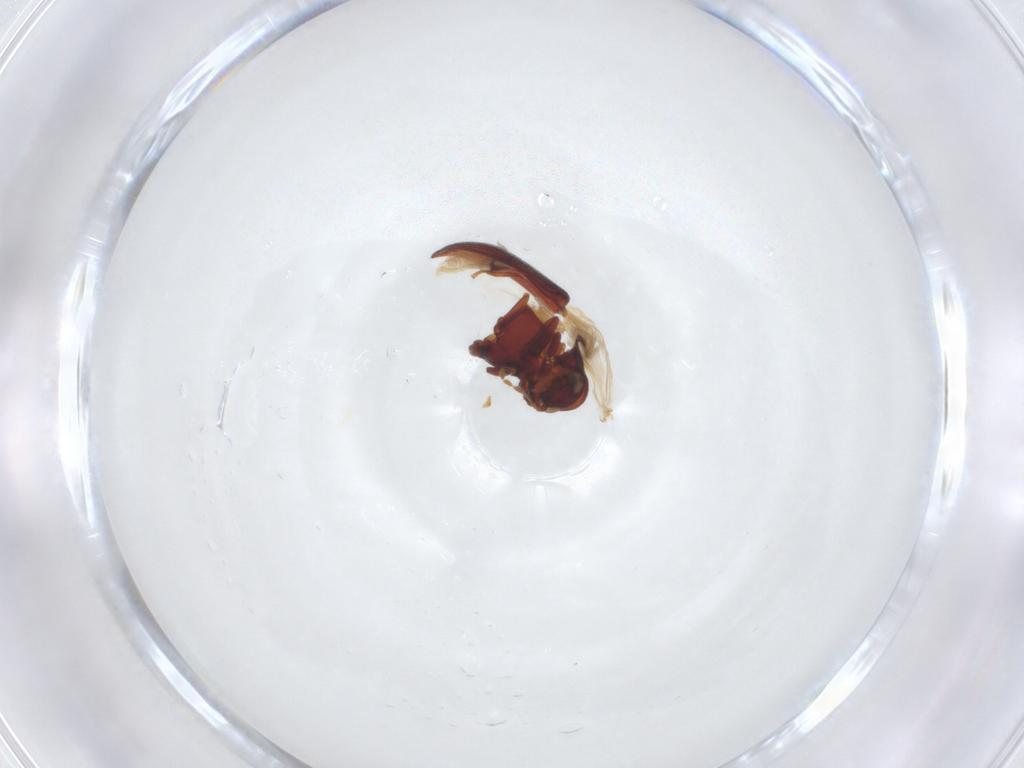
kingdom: Animalia
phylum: Arthropoda
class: Insecta
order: Coleoptera
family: Ptinidae
